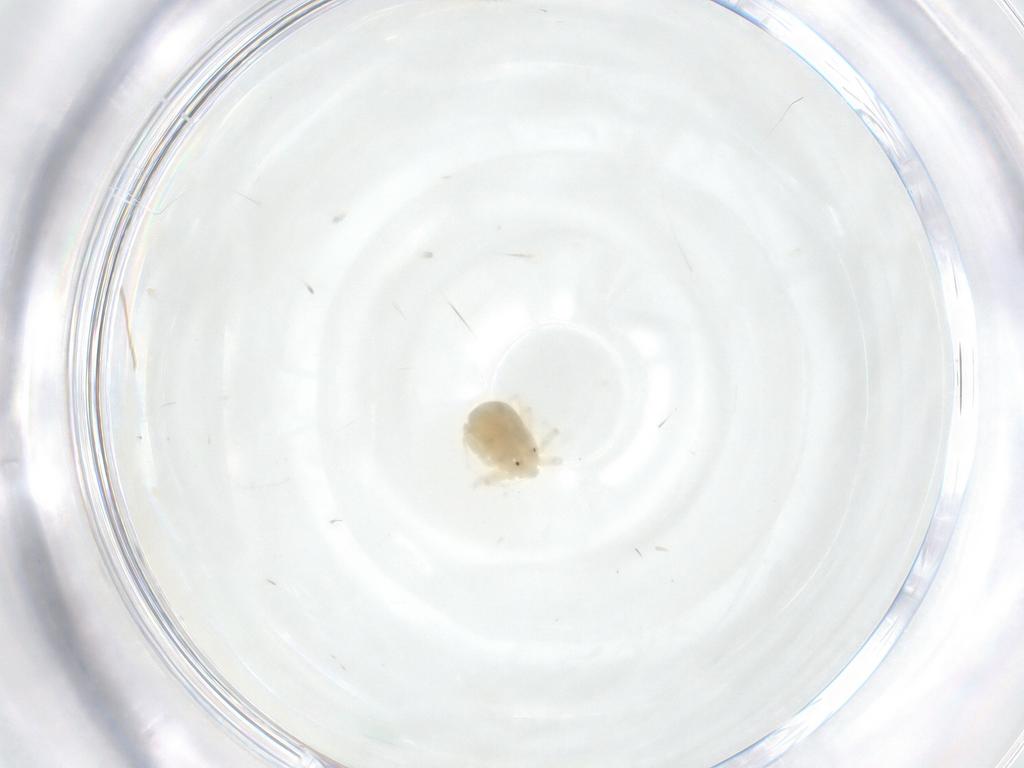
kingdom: Animalia
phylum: Arthropoda
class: Arachnida
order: Trombidiformes
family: Anystidae
